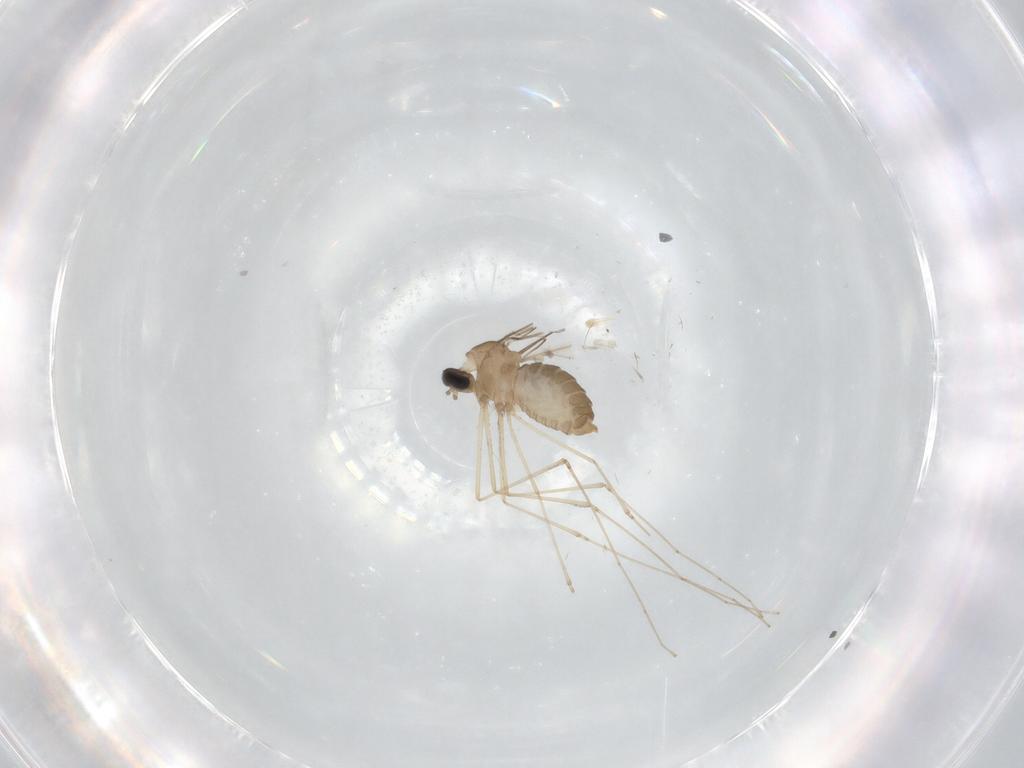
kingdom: Animalia
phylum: Arthropoda
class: Insecta
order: Diptera
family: Cecidomyiidae
